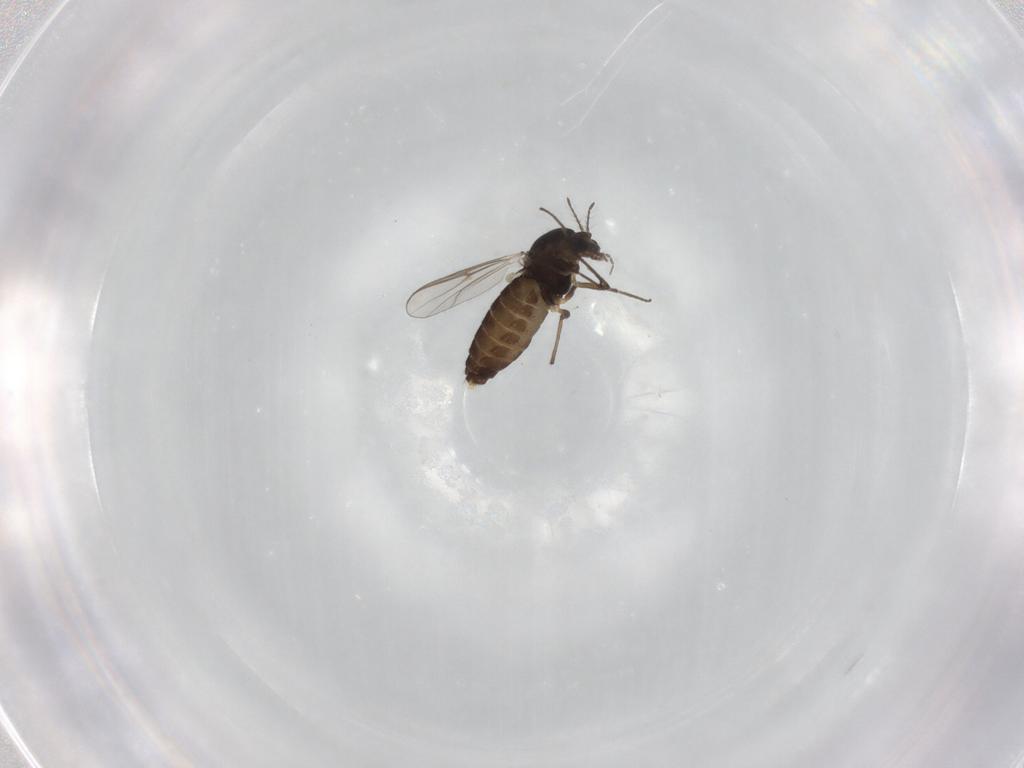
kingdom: Animalia
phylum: Arthropoda
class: Insecta
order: Diptera
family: Chironomidae
